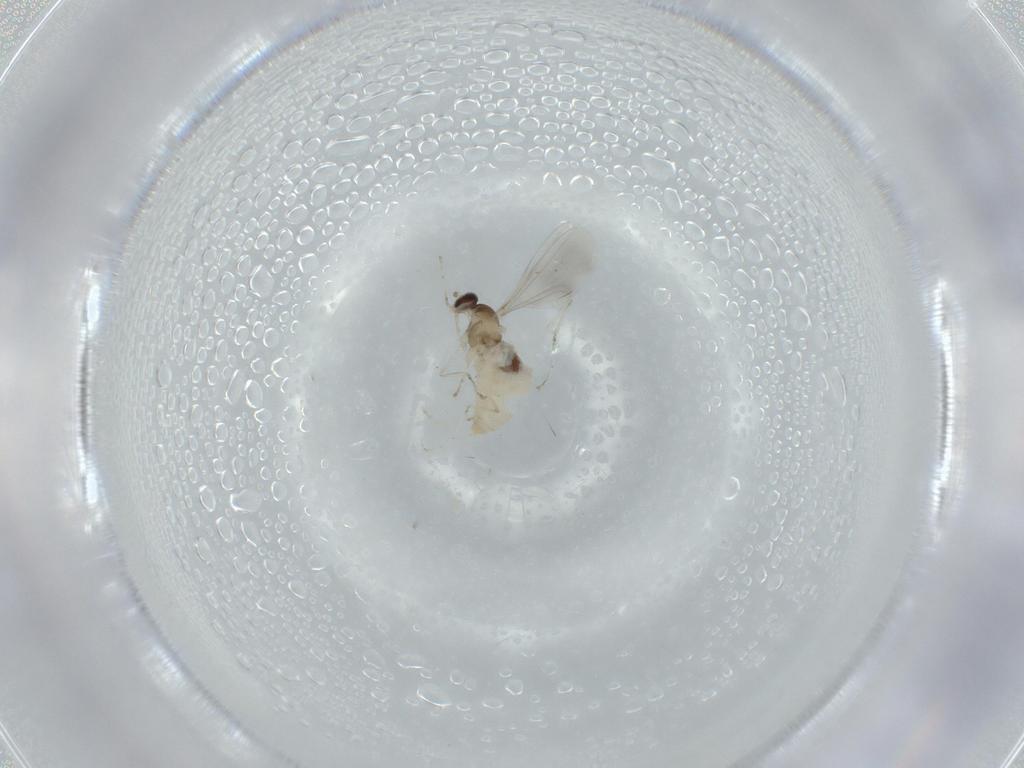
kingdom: Animalia
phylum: Arthropoda
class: Insecta
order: Diptera
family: Cecidomyiidae
